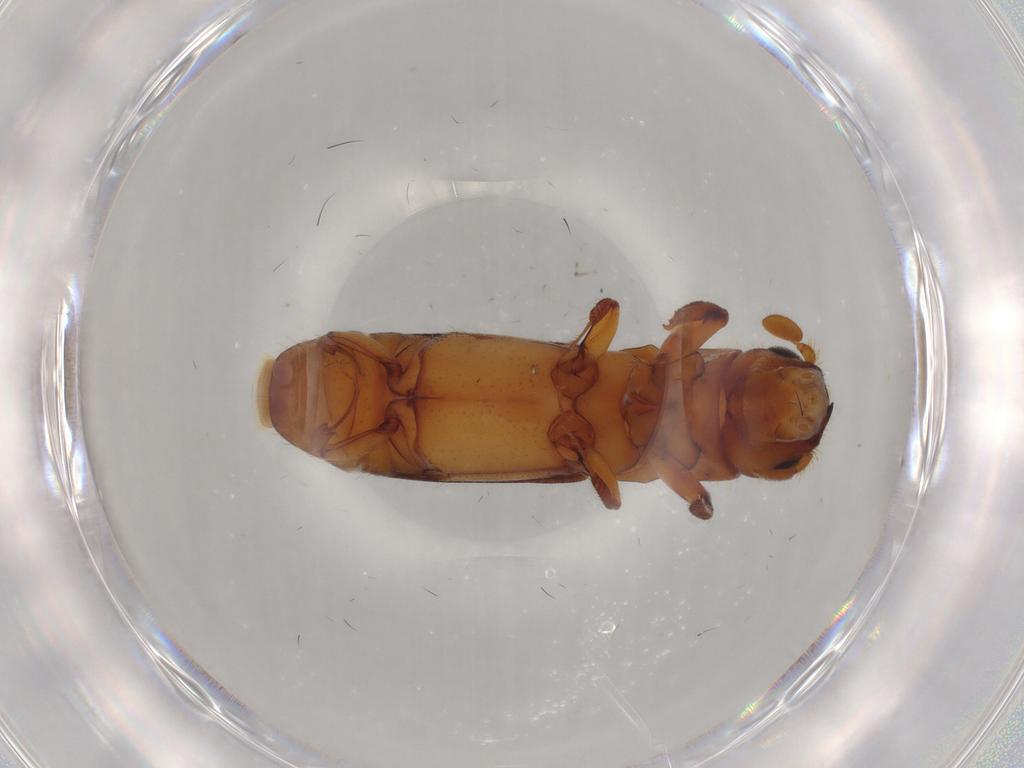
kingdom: Animalia
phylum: Arthropoda
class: Insecta
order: Coleoptera
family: Curculionidae
